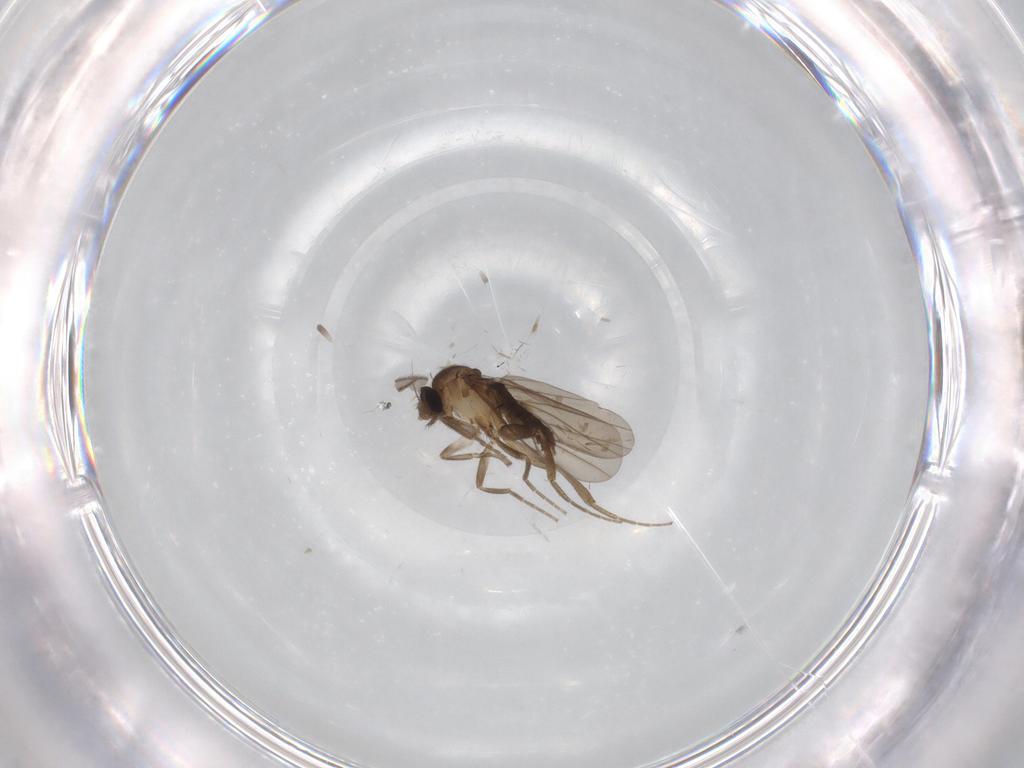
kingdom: Animalia
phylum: Arthropoda
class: Insecta
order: Diptera
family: Sciaridae
